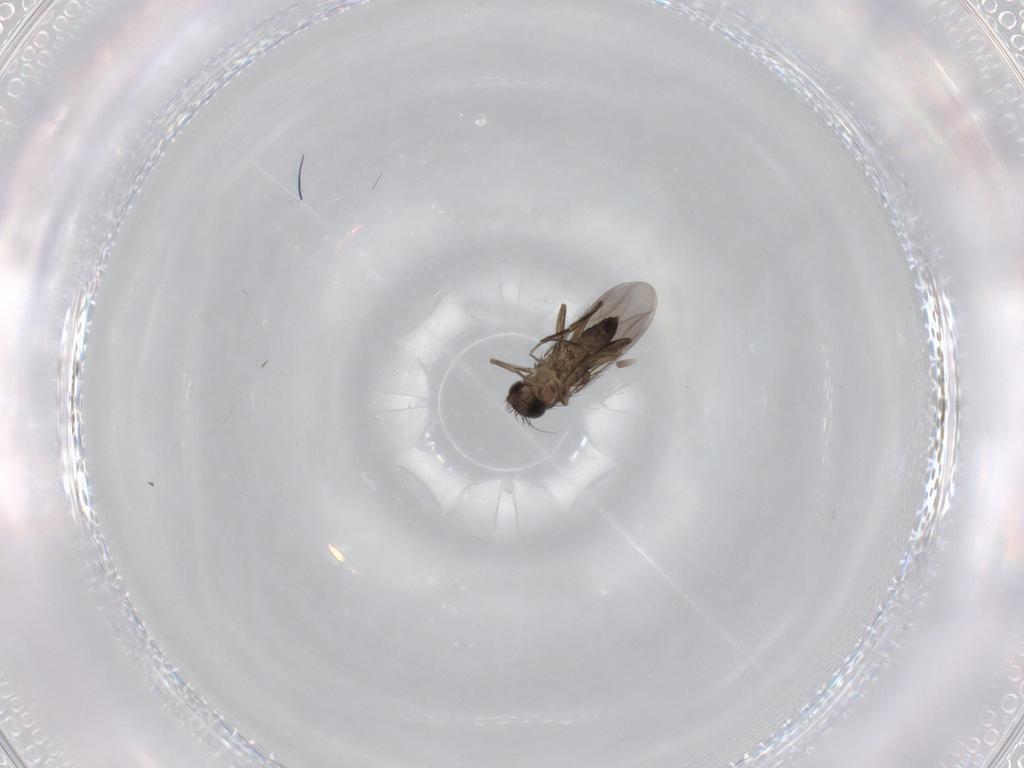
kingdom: Animalia
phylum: Arthropoda
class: Insecta
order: Diptera
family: Phoridae
